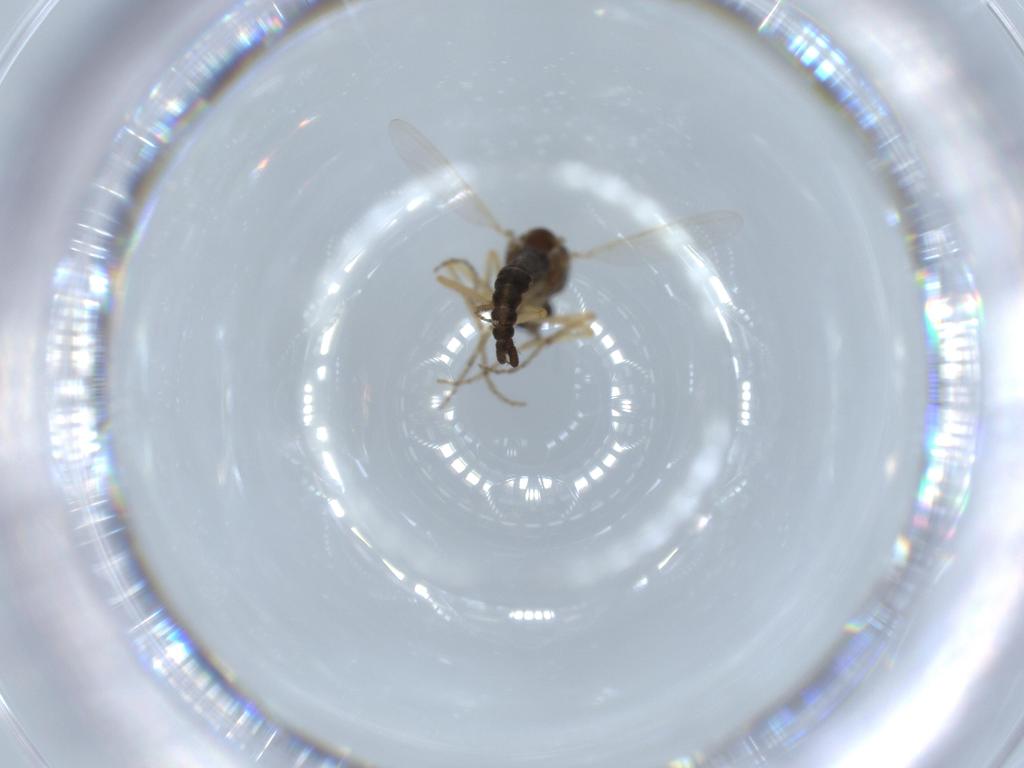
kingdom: Animalia
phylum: Arthropoda
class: Insecta
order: Diptera
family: Ceratopogonidae
